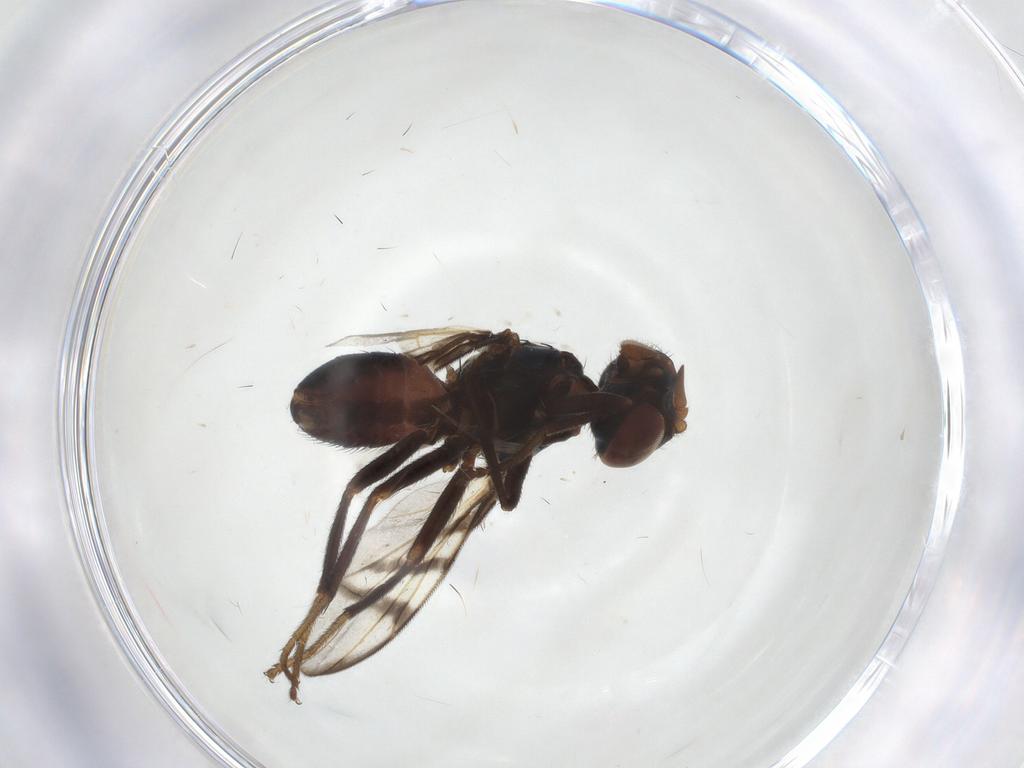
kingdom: Animalia
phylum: Arthropoda
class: Insecta
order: Diptera
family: Platystomatidae
